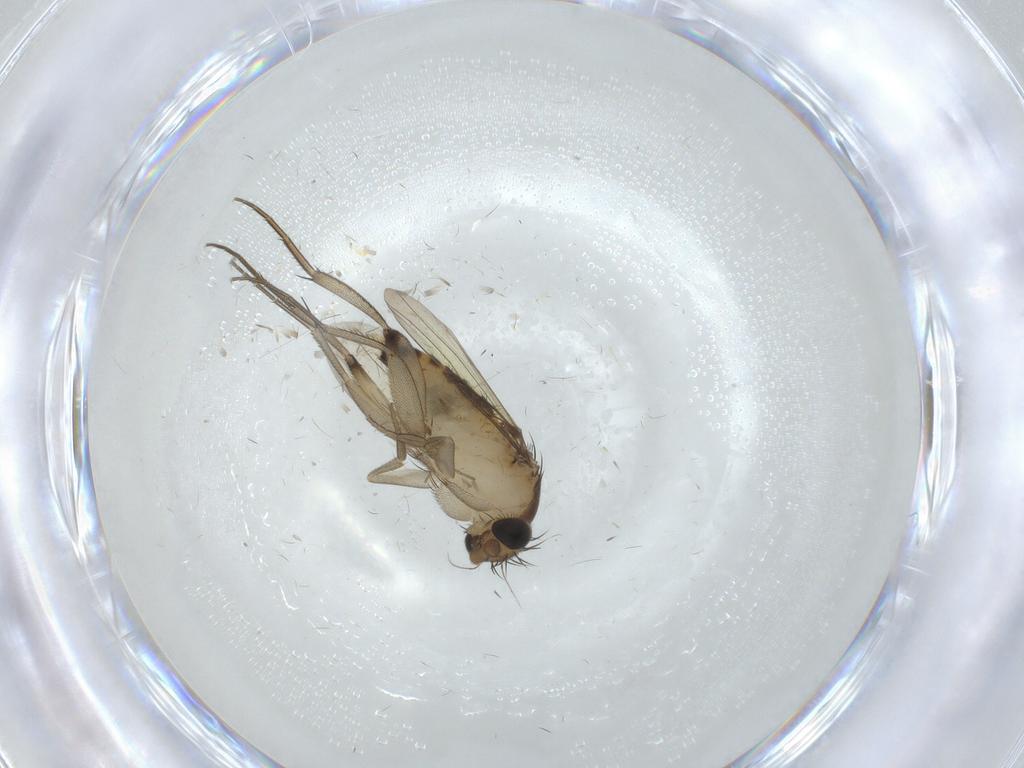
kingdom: Animalia
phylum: Arthropoda
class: Insecta
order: Diptera
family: Phoridae
